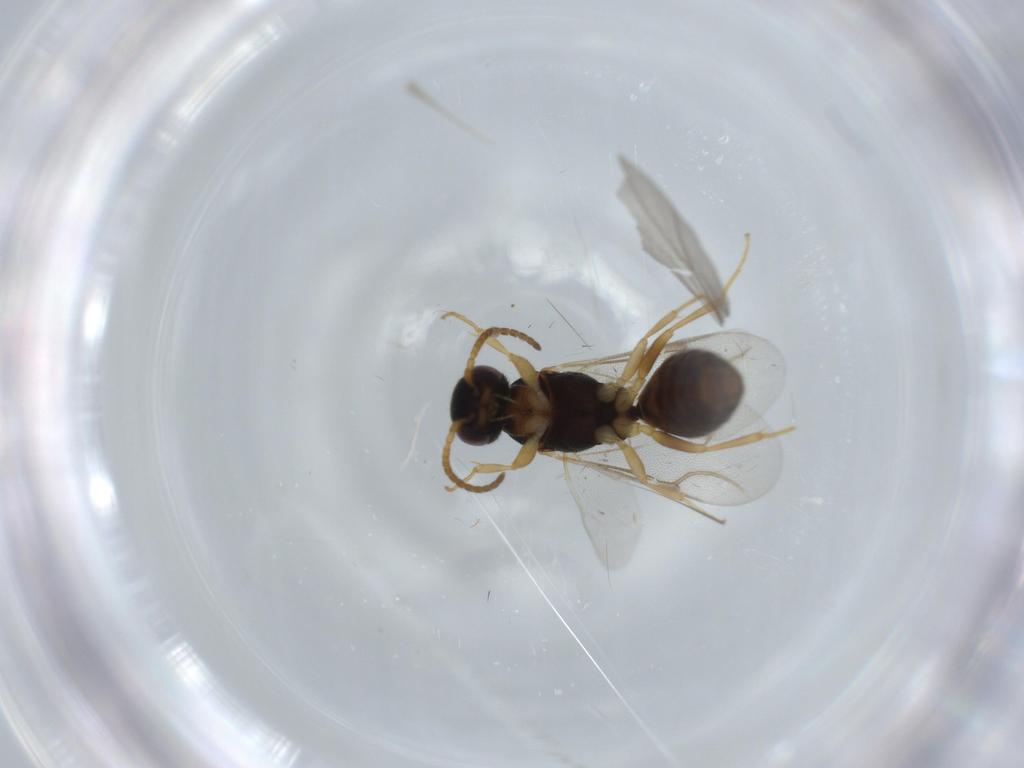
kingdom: Animalia
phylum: Arthropoda
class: Insecta
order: Hymenoptera
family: Bethylidae
